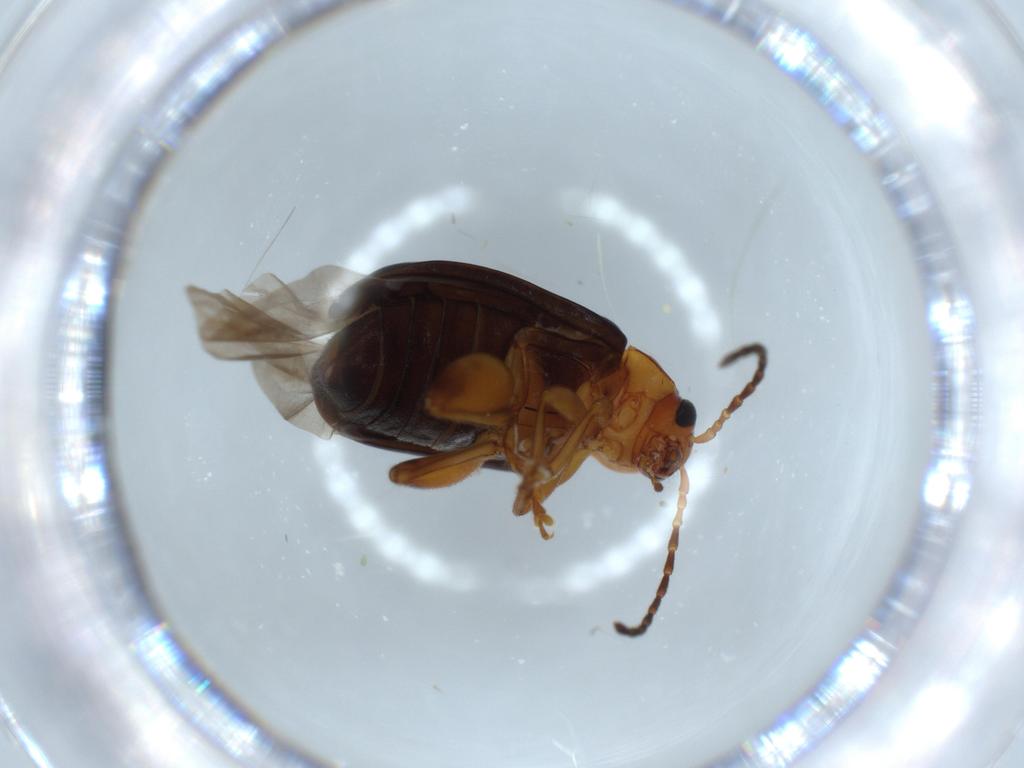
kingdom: Animalia
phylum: Arthropoda
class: Insecta
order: Coleoptera
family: Chrysomelidae
